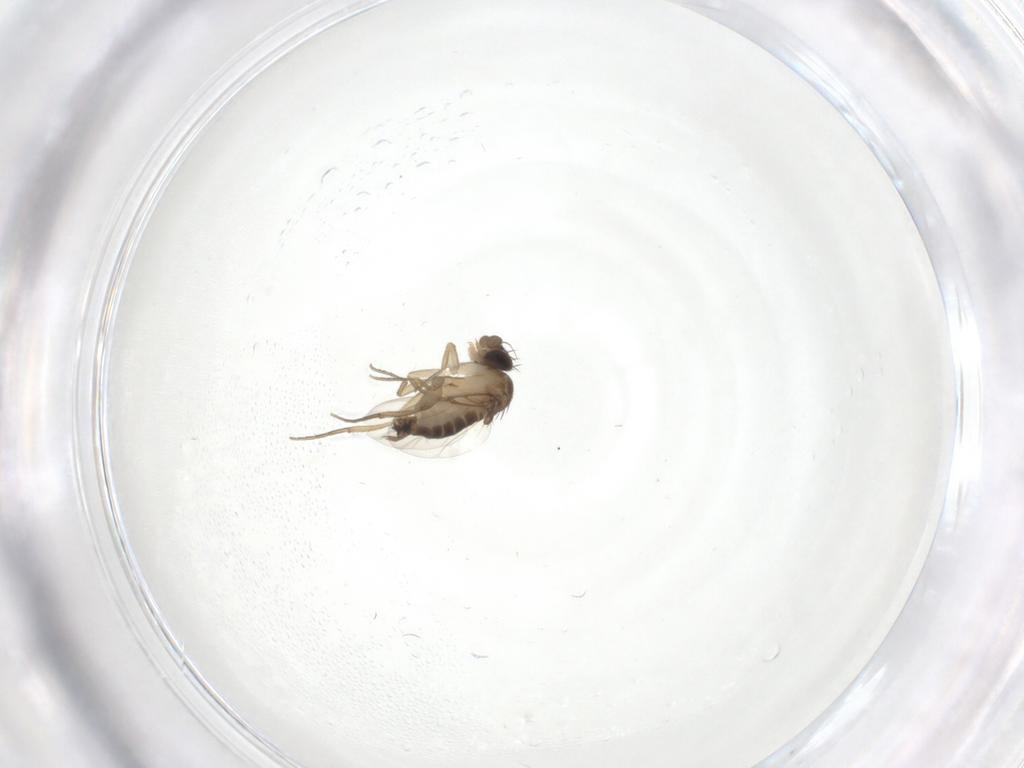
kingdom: Animalia
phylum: Arthropoda
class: Insecta
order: Diptera
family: Phoridae
